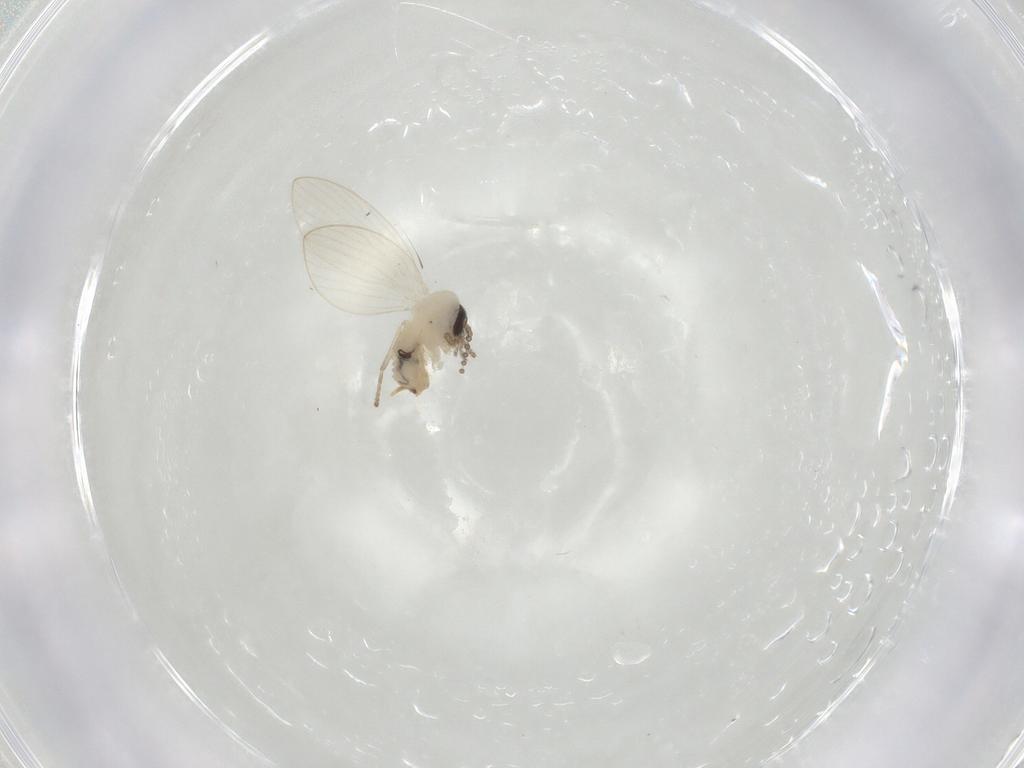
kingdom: Animalia
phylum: Arthropoda
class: Insecta
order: Diptera
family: Psychodidae
